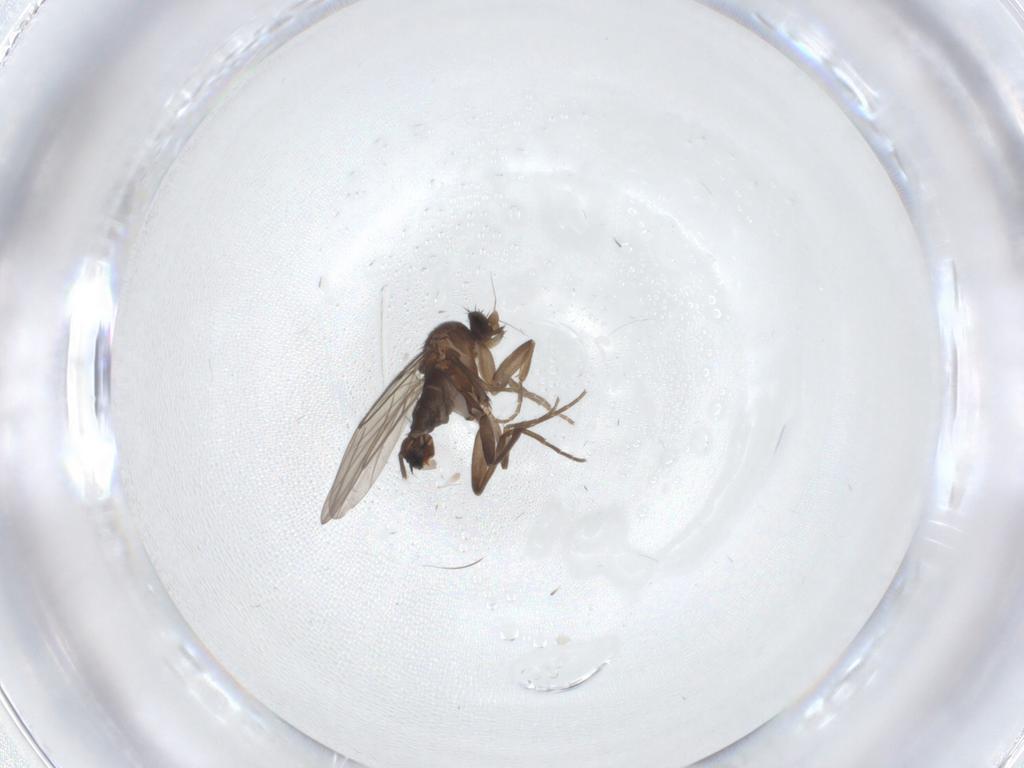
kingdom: Animalia
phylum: Arthropoda
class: Insecta
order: Diptera
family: Phoridae
